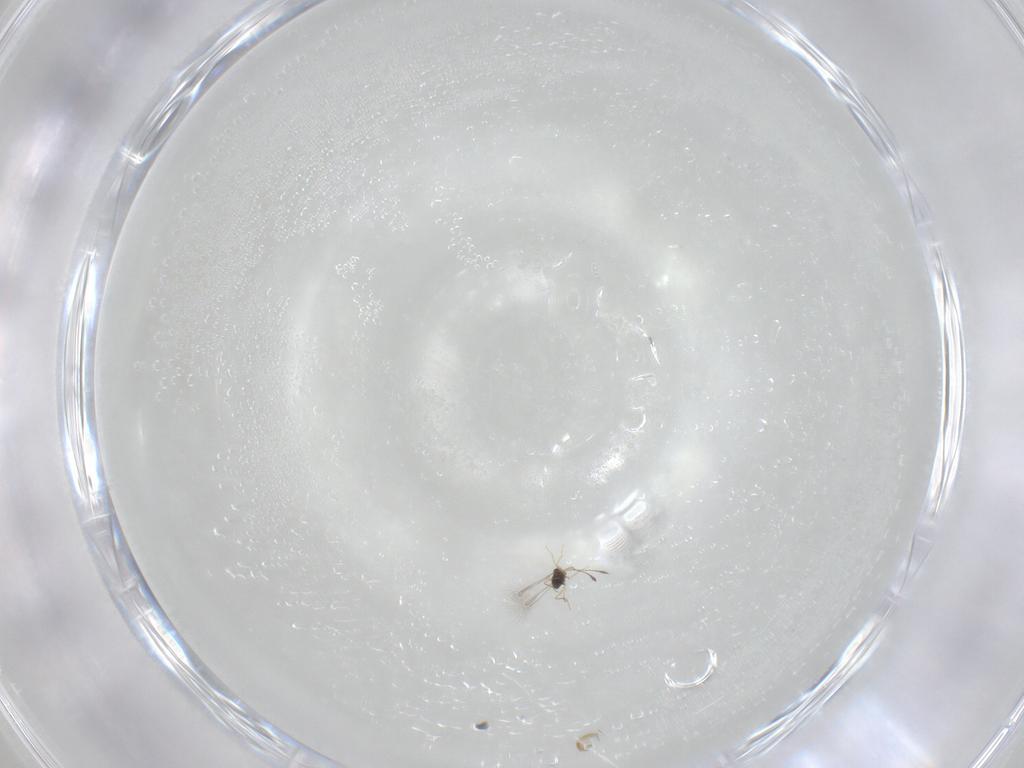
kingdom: Animalia
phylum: Arthropoda
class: Insecta
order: Hymenoptera
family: Mymaridae
